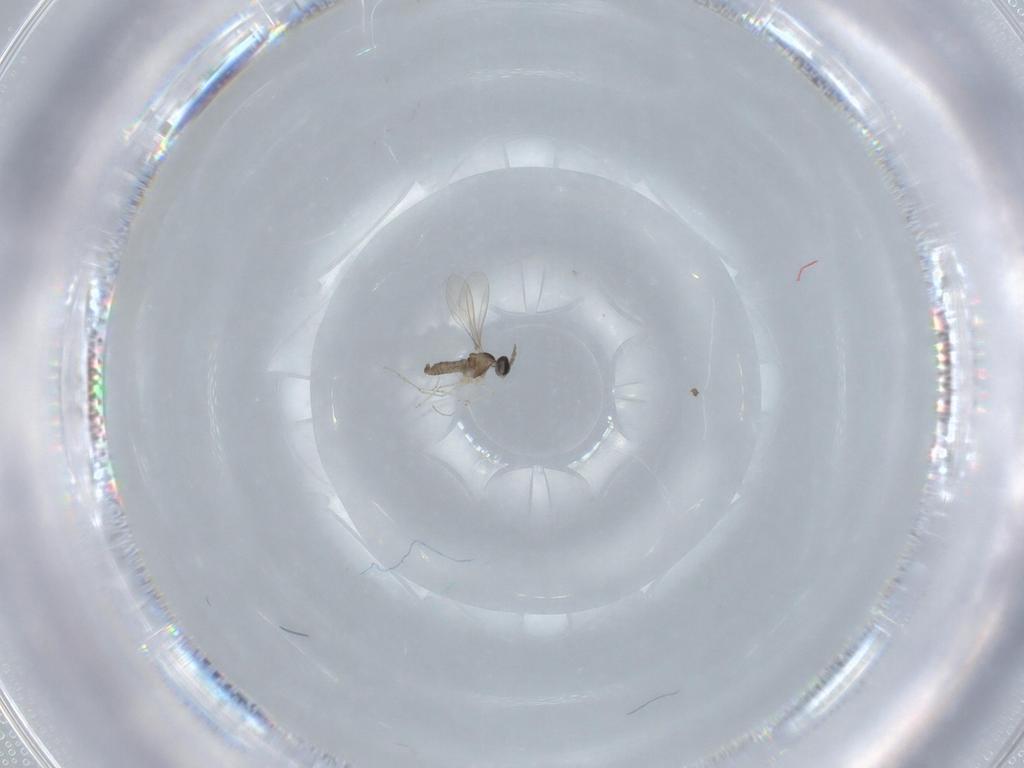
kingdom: Animalia
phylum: Arthropoda
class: Insecta
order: Diptera
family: Cecidomyiidae
